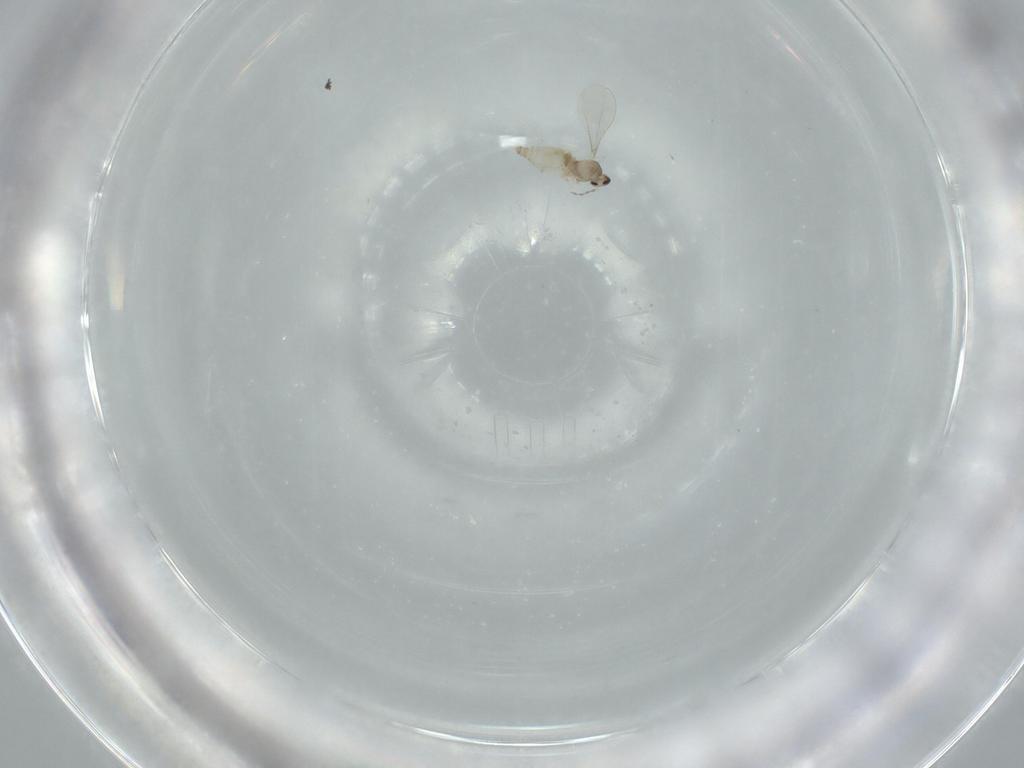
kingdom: Animalia
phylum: Arthropoda
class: Insecta
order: Diptera
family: Cecidomyiidae
